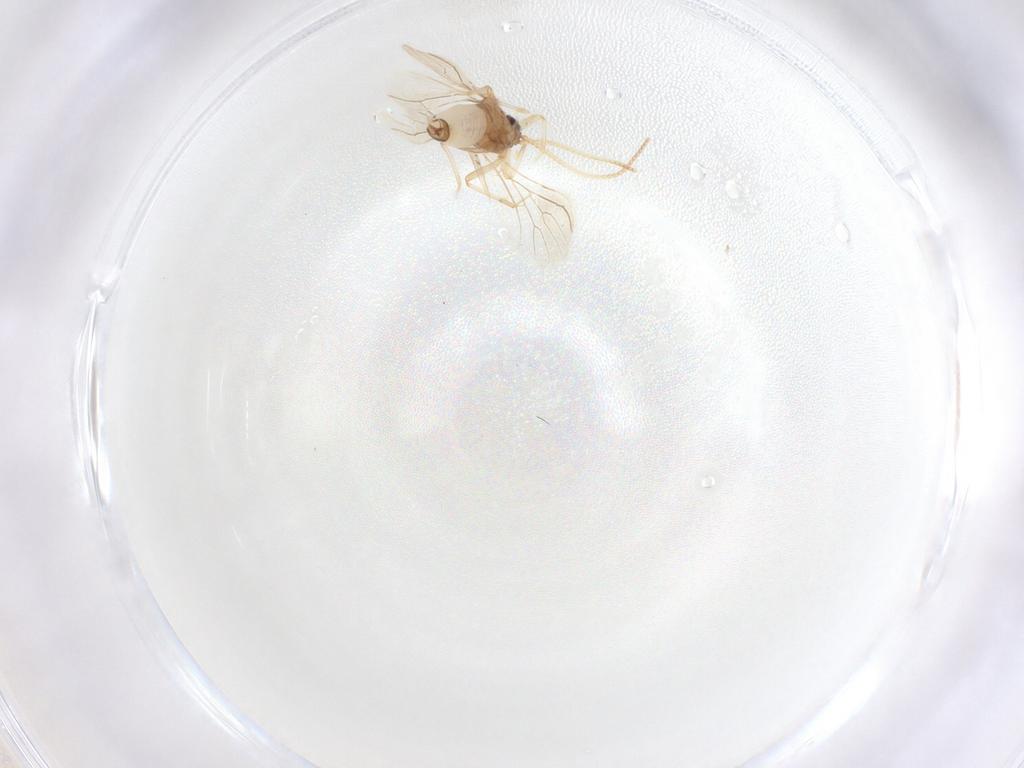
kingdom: Animalia
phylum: Arthropoda
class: Insecta
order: Neuroptera
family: Coniopterygidae
